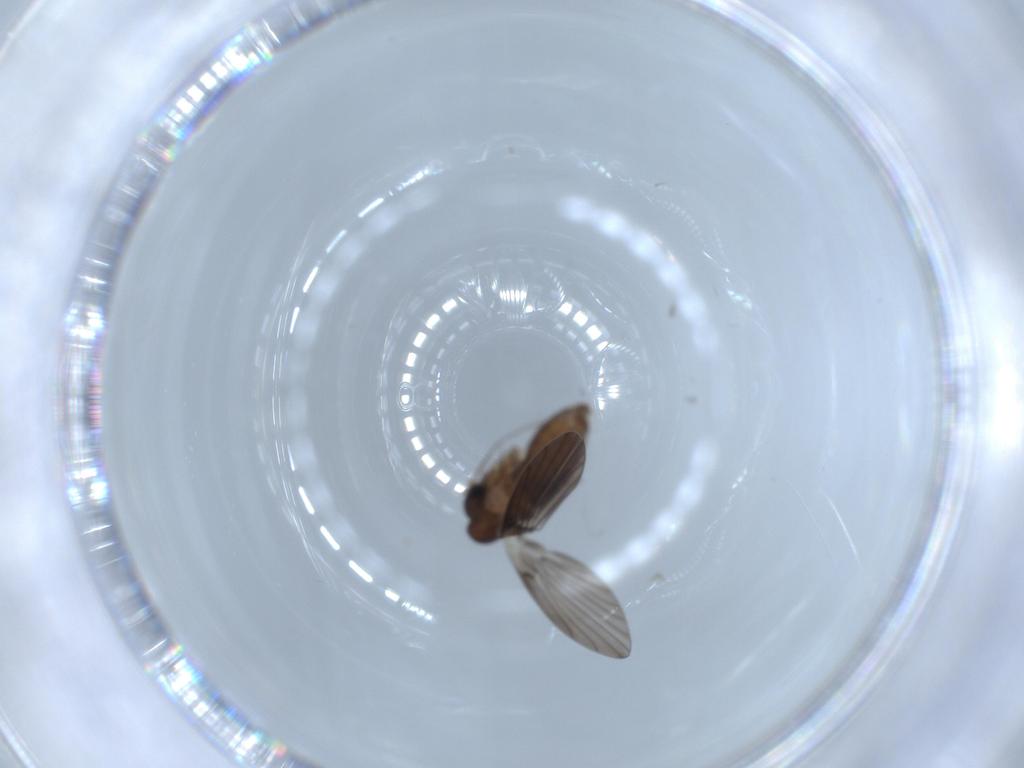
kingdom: Animalia
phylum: Arthropoda
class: Insecta
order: Diptera
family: Psychodidae
